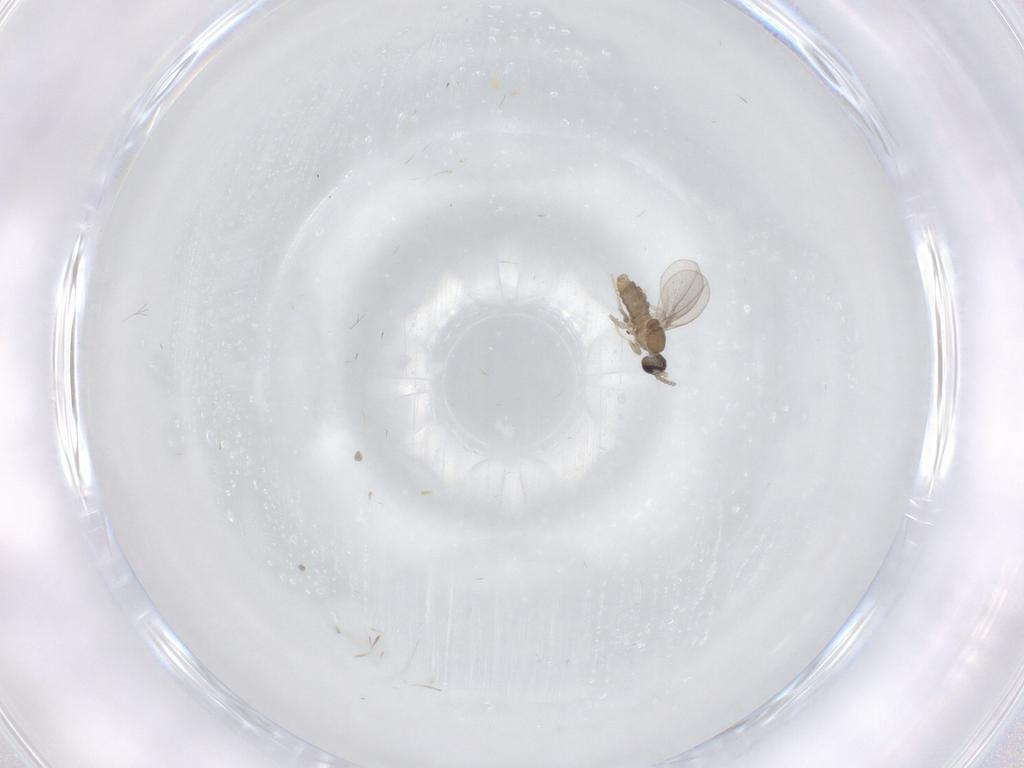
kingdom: Animalia
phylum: Arthropoda
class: Insecta
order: Diptera
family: Cecidomyiidae
